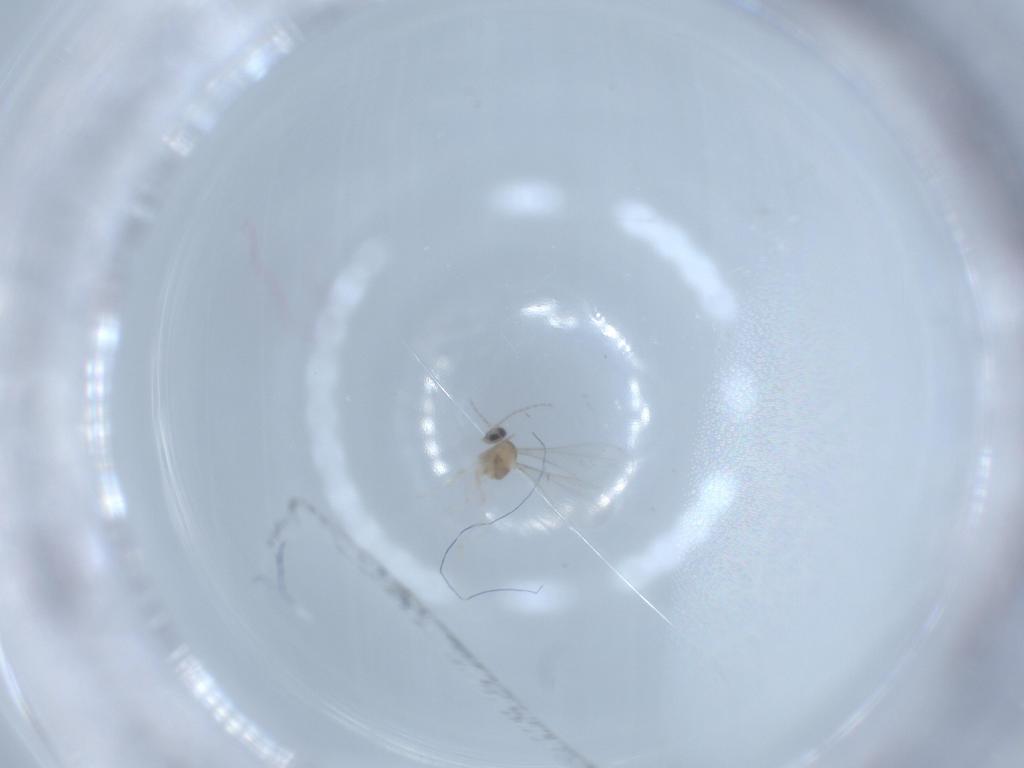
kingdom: Animalia
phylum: Arthropoda
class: Insecta
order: Diptera
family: Cecidomyiidae
